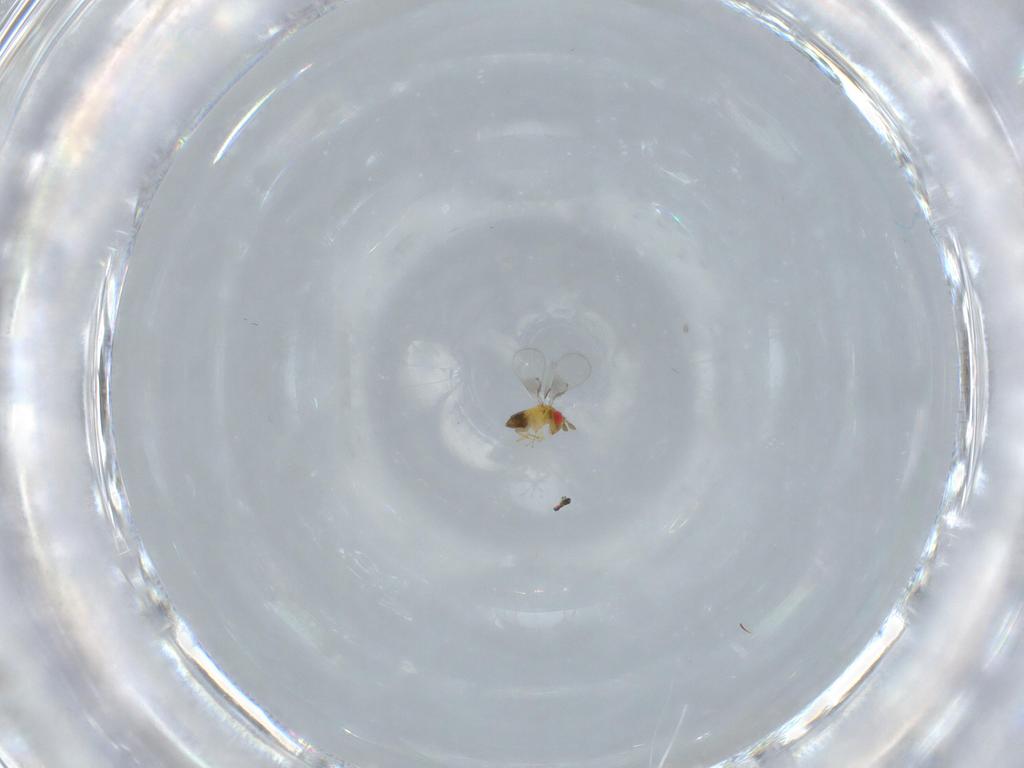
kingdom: Animalia
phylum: Arthropoda
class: Insecta
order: Hymenoptera
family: Trichogrammatidae
